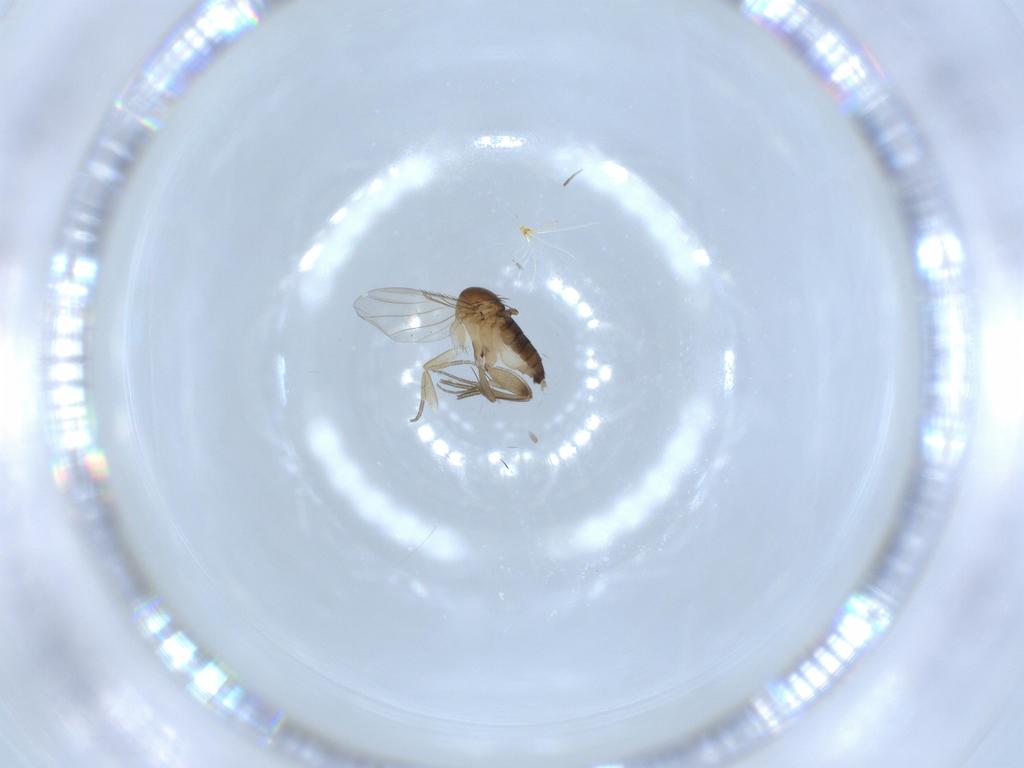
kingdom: Animalia
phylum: Arthropoda
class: Insecta
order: Diptera
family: Phoridae
